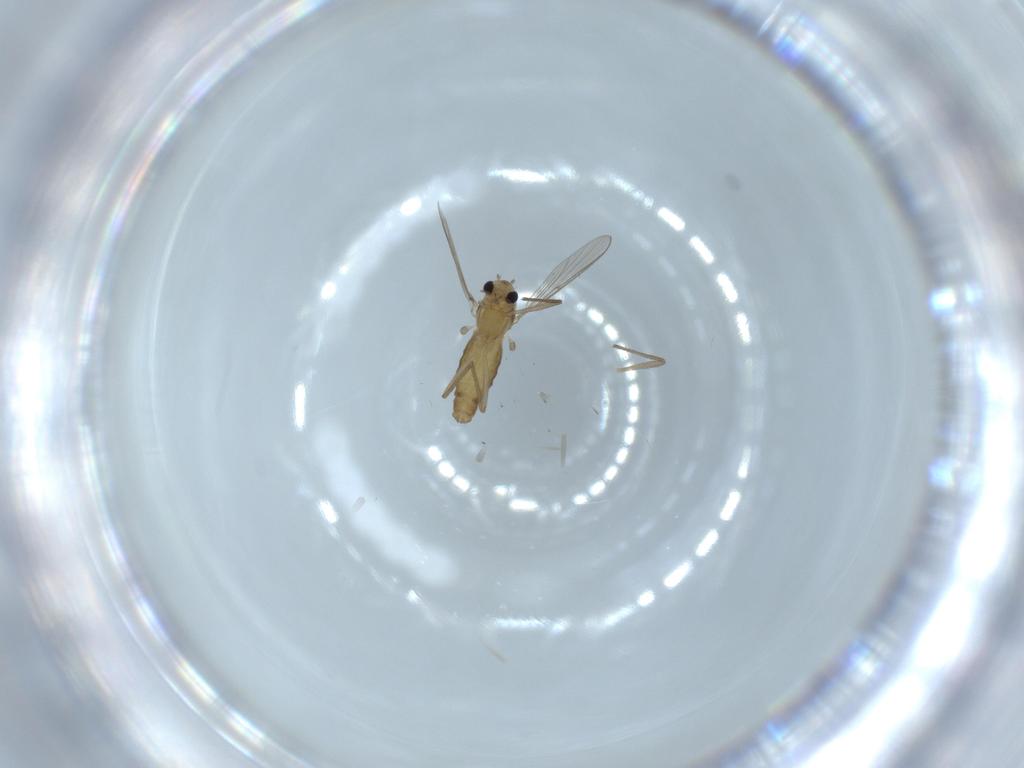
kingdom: Animalia
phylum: Arthropoda
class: Insecta
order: Diptera
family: Chironomidae
